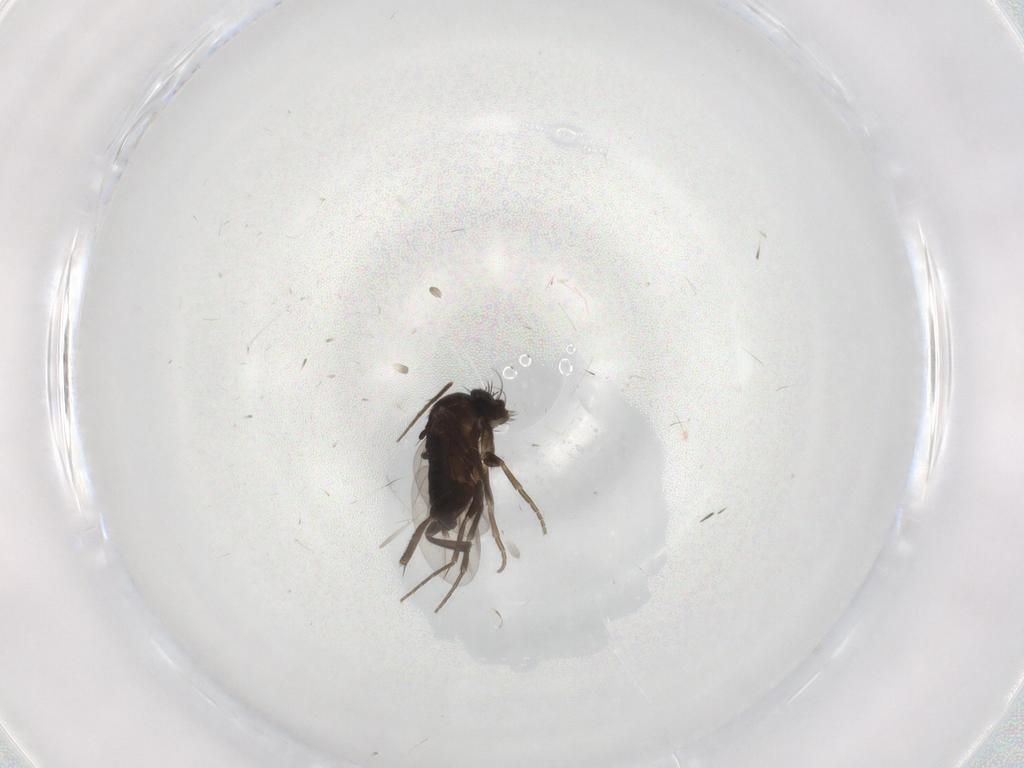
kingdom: Animalia
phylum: Arthropoda
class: Insecta
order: Diptera
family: Phoridae
